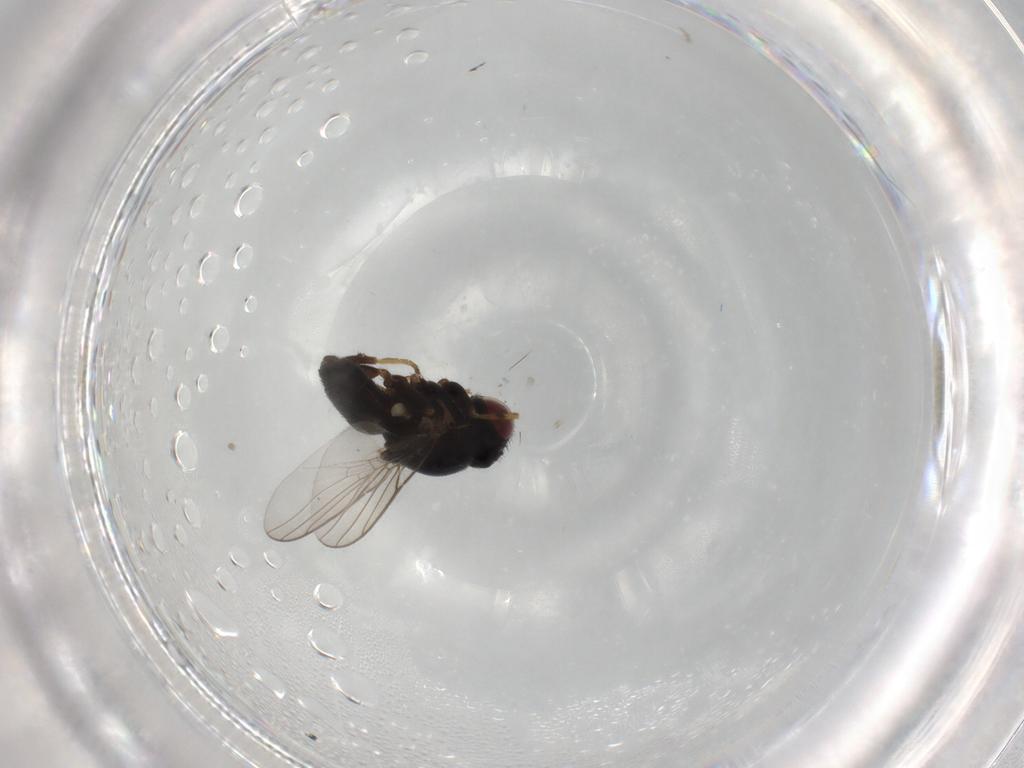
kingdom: Animalia
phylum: Arthropoda
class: Insecta
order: Diptera
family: Chloropidae
